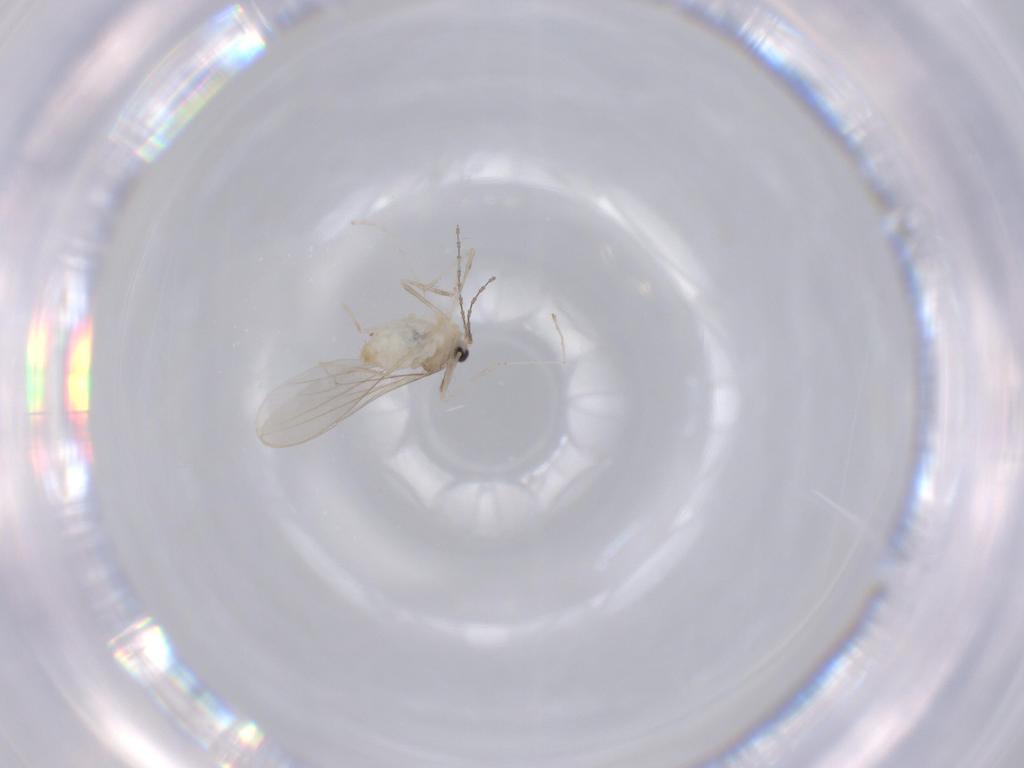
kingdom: Animalia
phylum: Arthropoda
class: Insecta
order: Diptera
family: Cecidomyiidae
